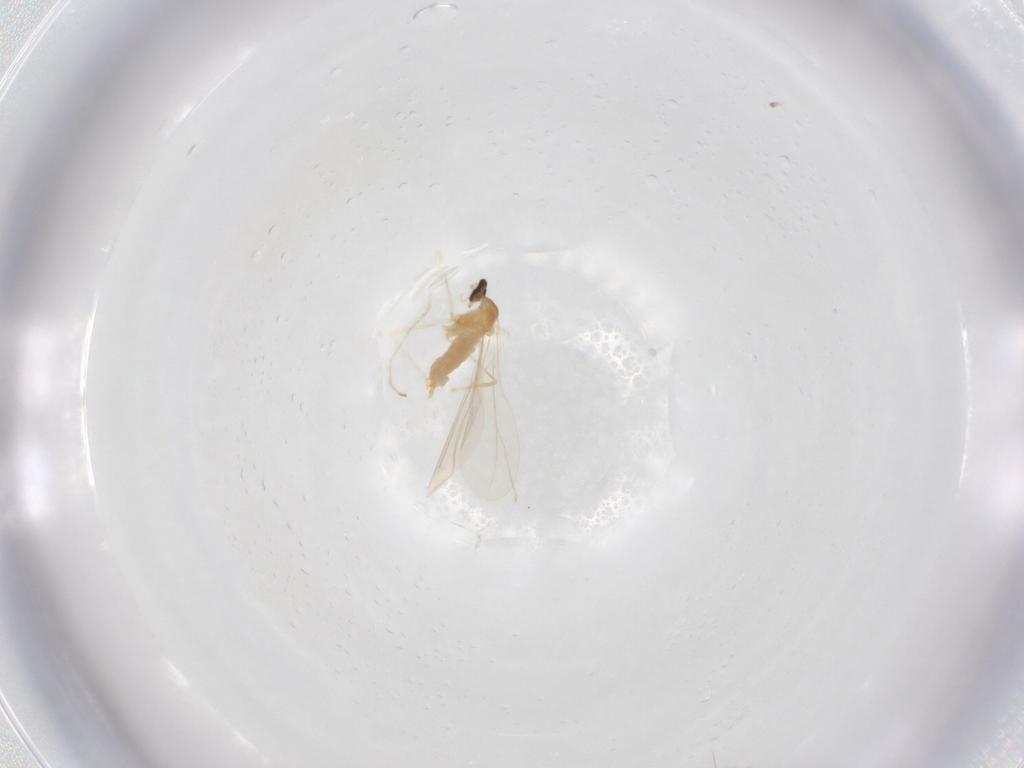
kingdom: Animalia
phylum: Arthropoda
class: Insecta
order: Diptera
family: Cecidomyiidae
